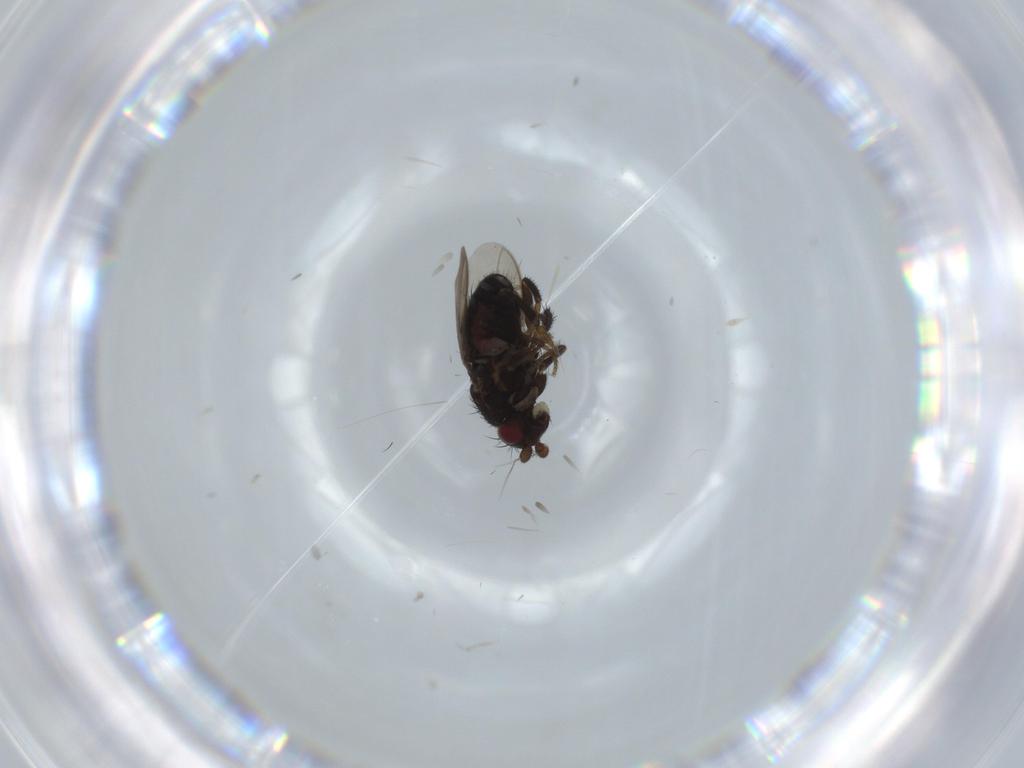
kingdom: Animalia
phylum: Arthropoda
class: Insecta
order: Diptera
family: Sphaeroceridae
